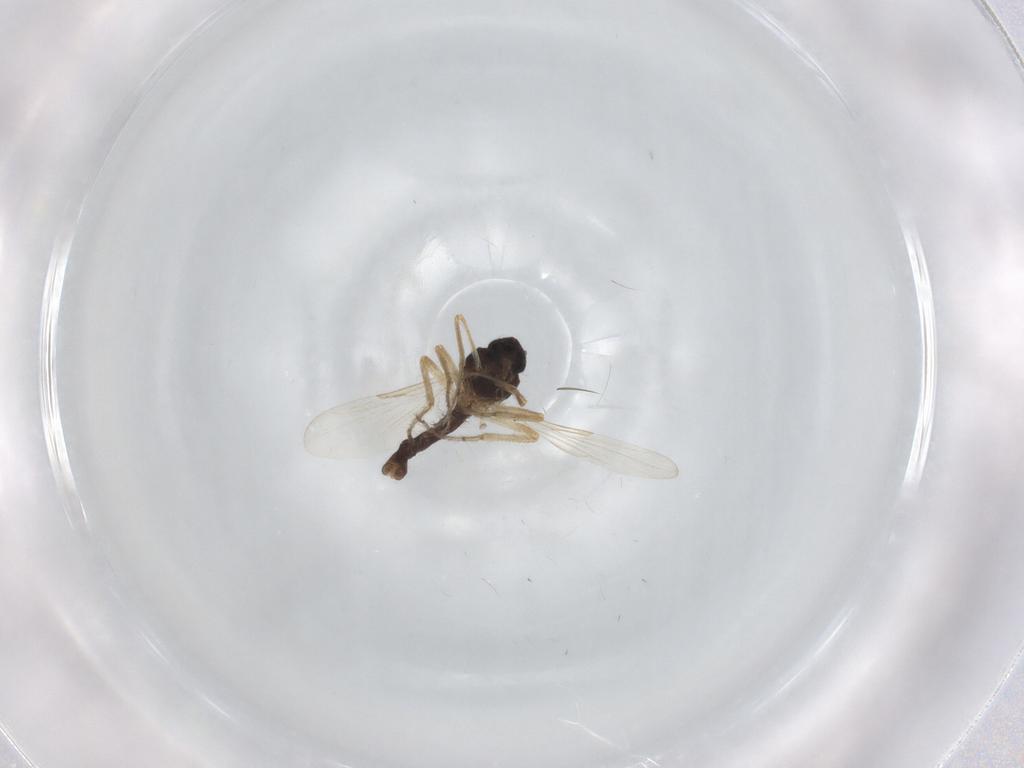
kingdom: Animalia
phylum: Arthropoda
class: Insecta
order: Diptera
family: Ceratopogonidae
